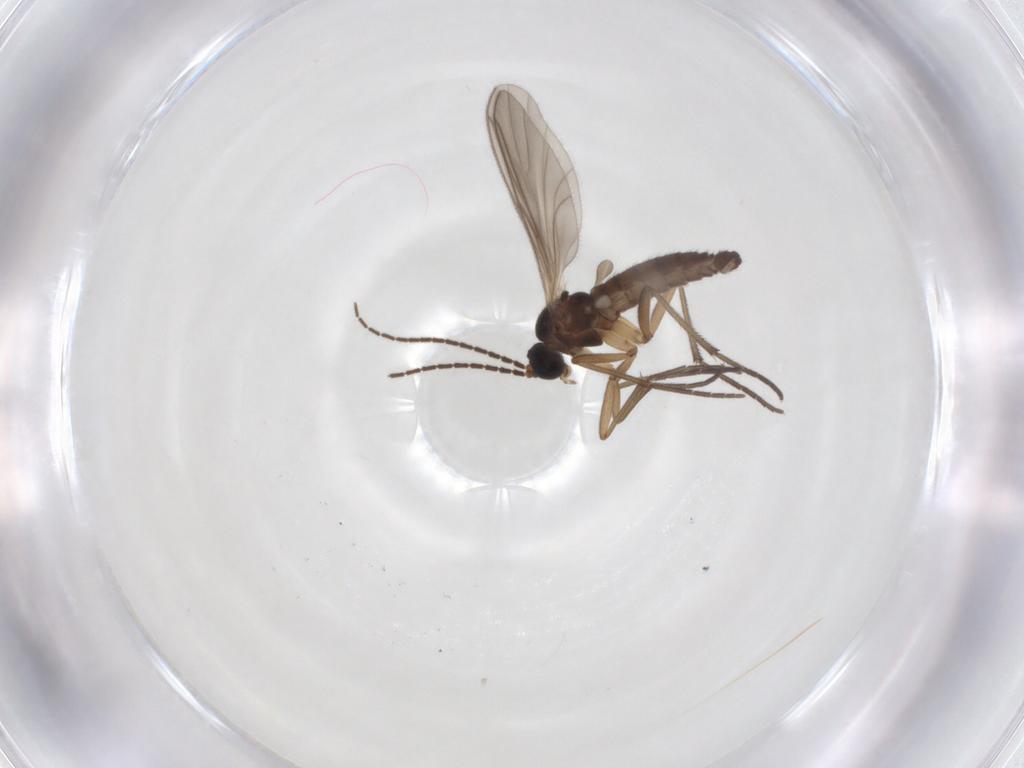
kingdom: Animalia
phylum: Arthropoda
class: Insecta
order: Diptera
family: Sciaridae
